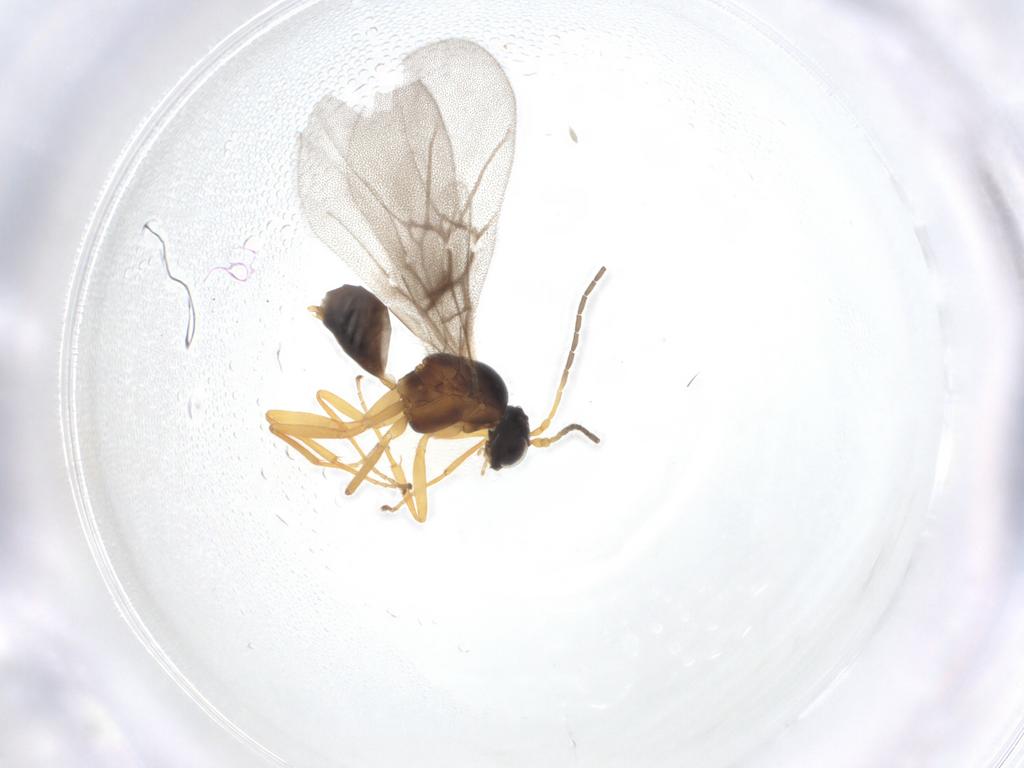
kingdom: Animalia
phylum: Arthropoda
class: Insecta
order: Hymenoptera
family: Cynipidae
